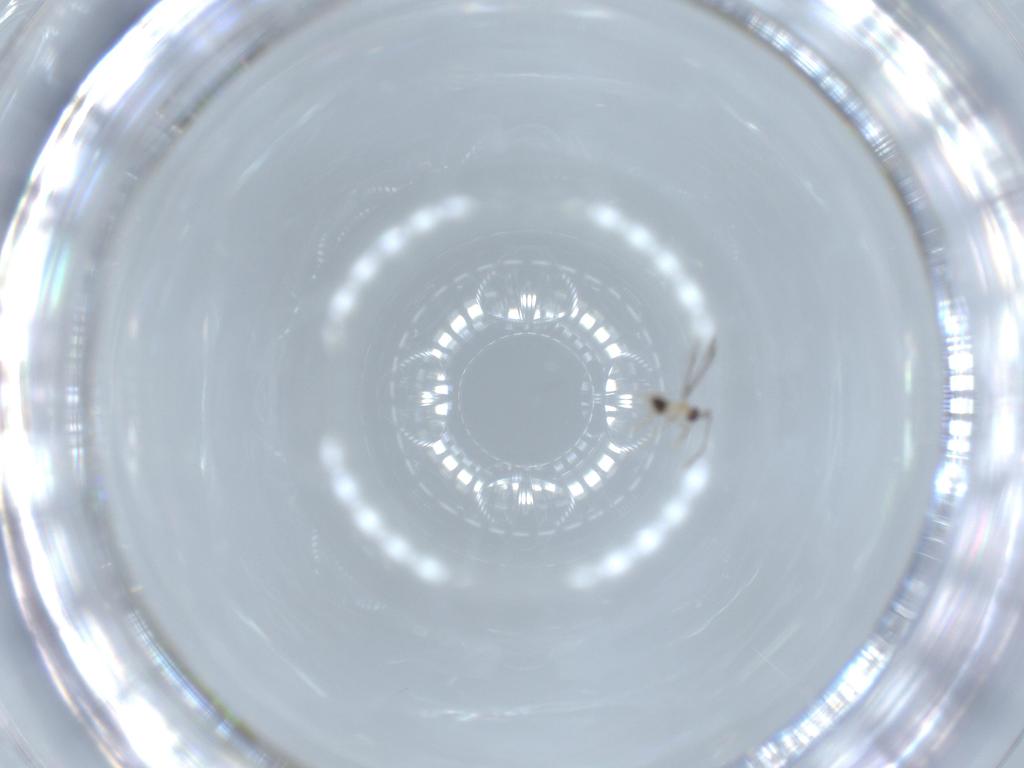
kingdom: Animalia
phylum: Arthropoda
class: Insecta
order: Hymenoptera
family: Mymaridae
